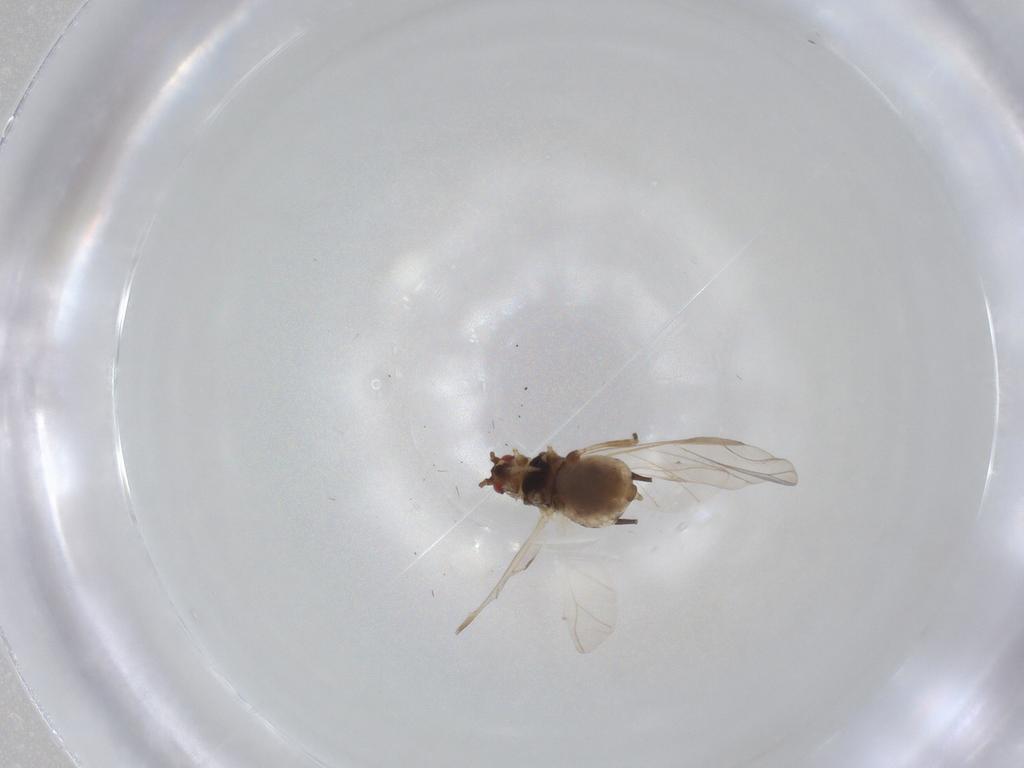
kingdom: Animalia
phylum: Arthropoda
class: Insecta
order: Hemiptera
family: Aphididae
